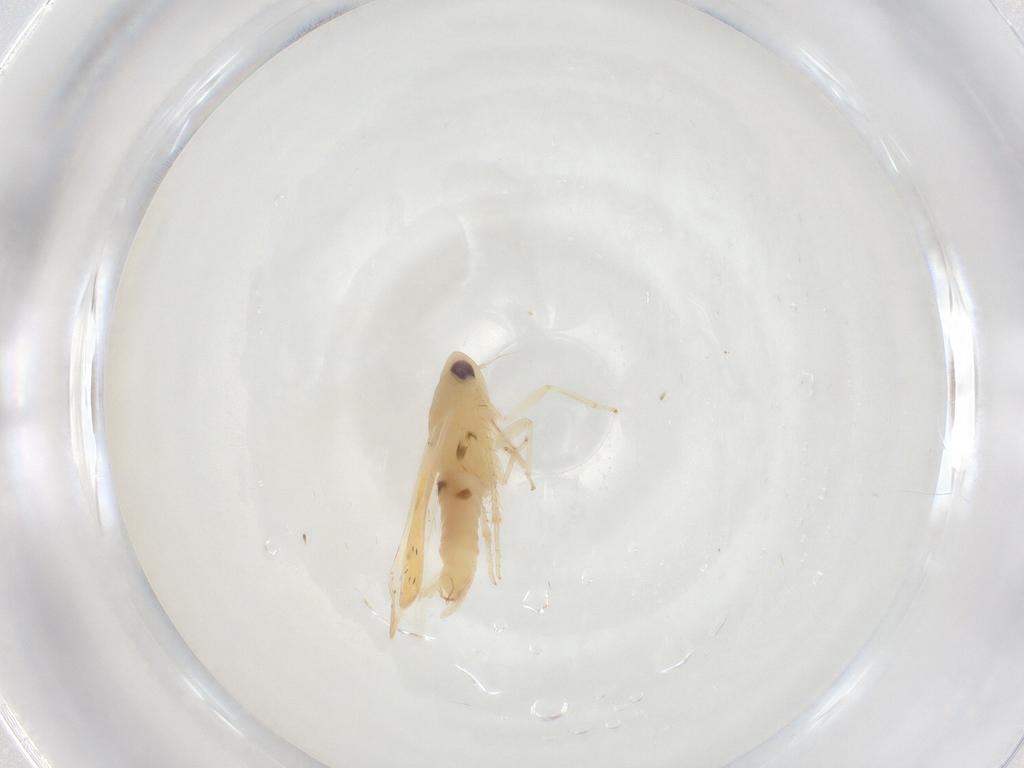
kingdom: Animalia
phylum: Arthropoda
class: Insecta
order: Hemiptera
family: Cicadellidae
